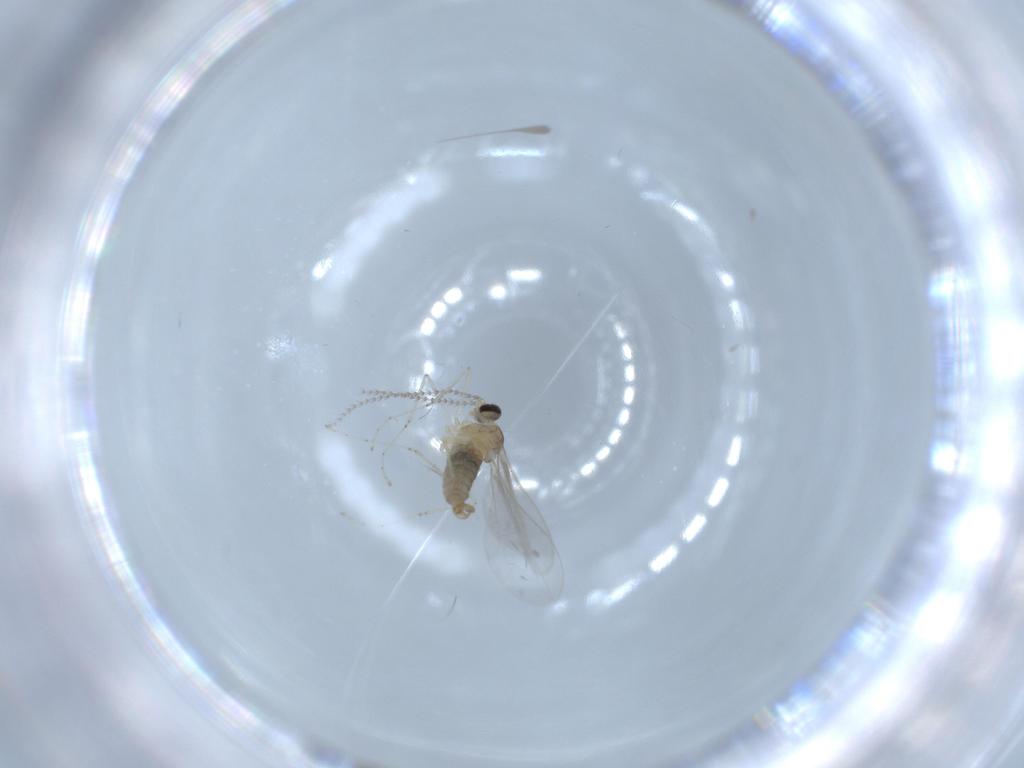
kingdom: Animalia
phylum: Arthropoda
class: Insecta
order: Diptera
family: Cecidomyiidae
